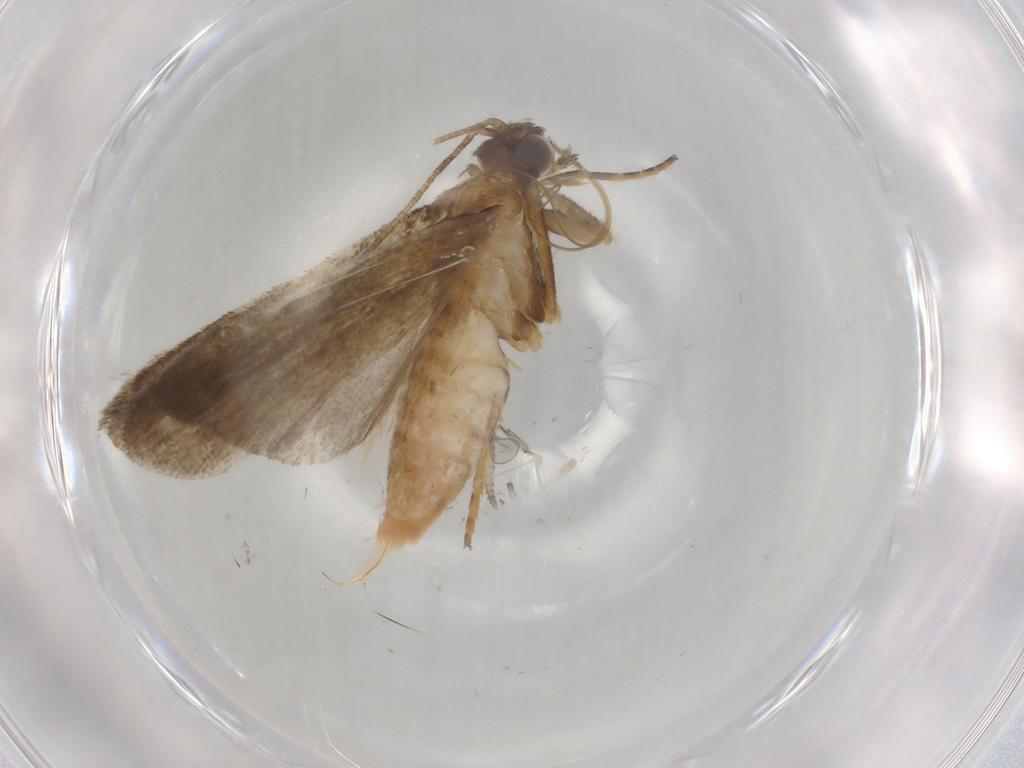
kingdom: Animalia
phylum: Arthropoda
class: Insecta
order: Lepidoptera
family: Noctuidae
